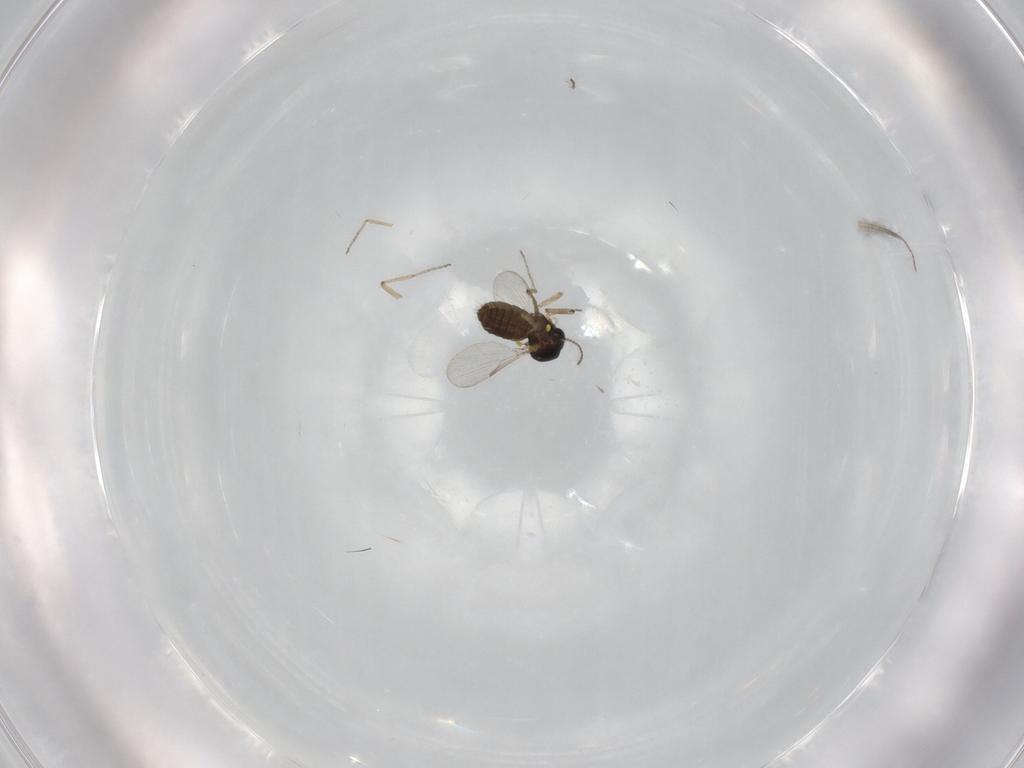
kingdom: Animalia
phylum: Arthropoda
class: Insecta
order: Diptera
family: Ceratopogonidae
